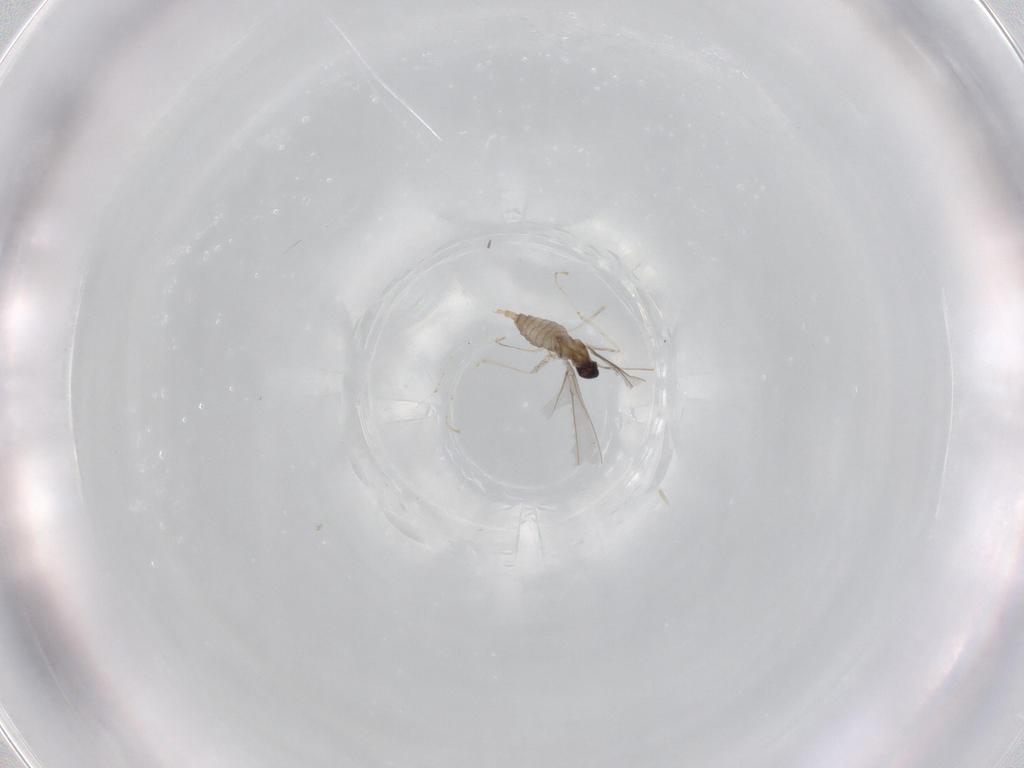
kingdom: Animalia
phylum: Arthropoda
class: Insecta
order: Diptera
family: Cecidomyiidae
